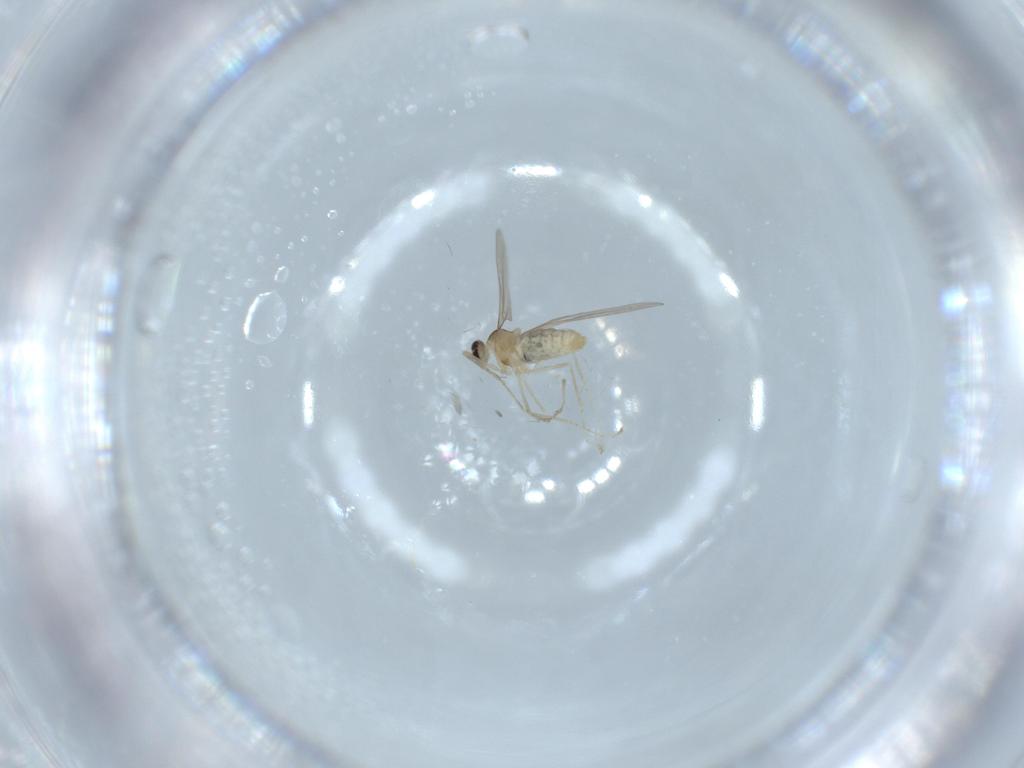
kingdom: Animalia
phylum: Arthropoda
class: Insecta
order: Diptera
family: Cecidomyiidae
